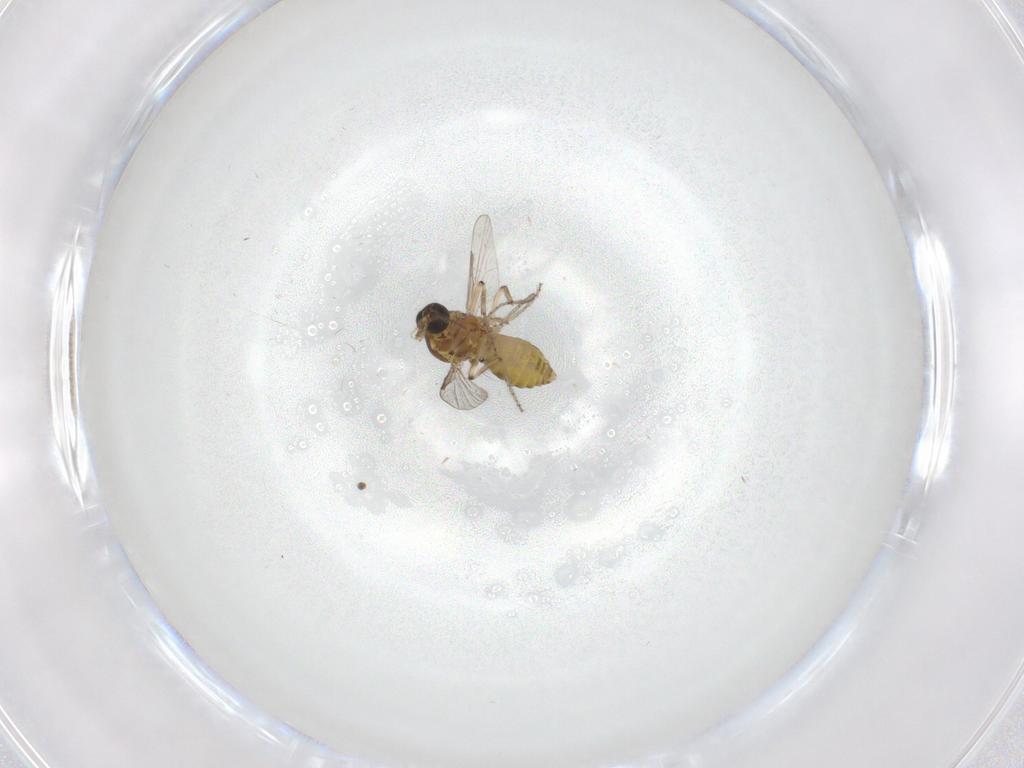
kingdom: Animalia
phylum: Arthropoda
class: Insecta
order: Diptera
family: Ceratopogonidae
